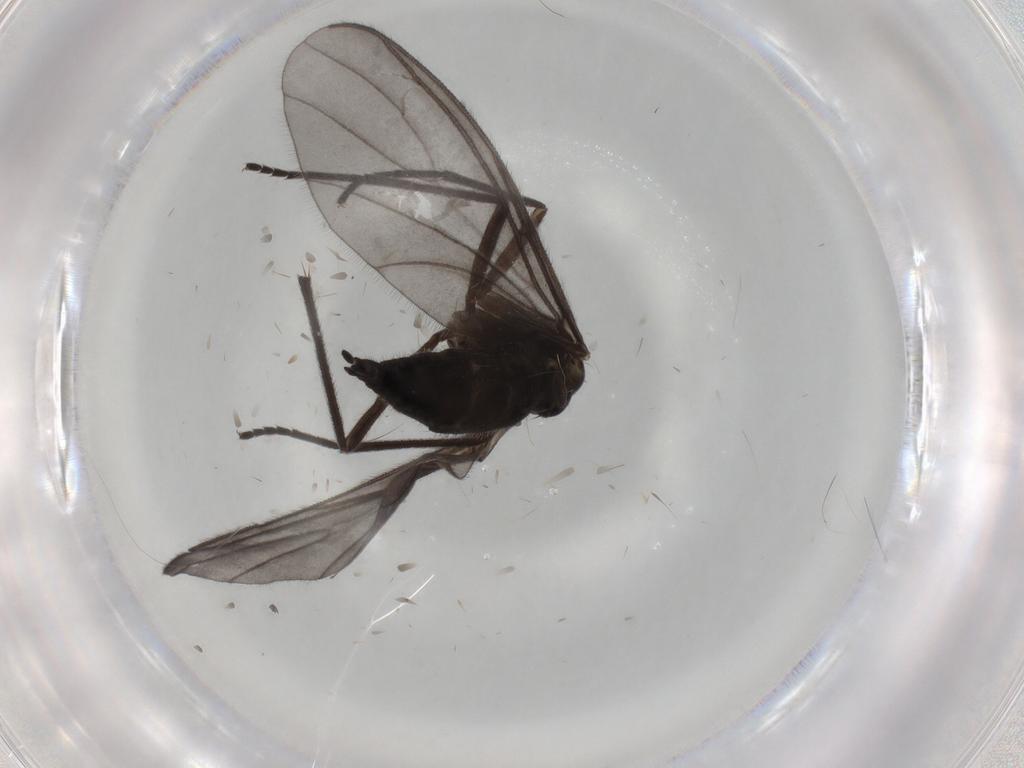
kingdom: Animalia
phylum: Arthropoda
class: Insecta
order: Diptera
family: Sciaridae
